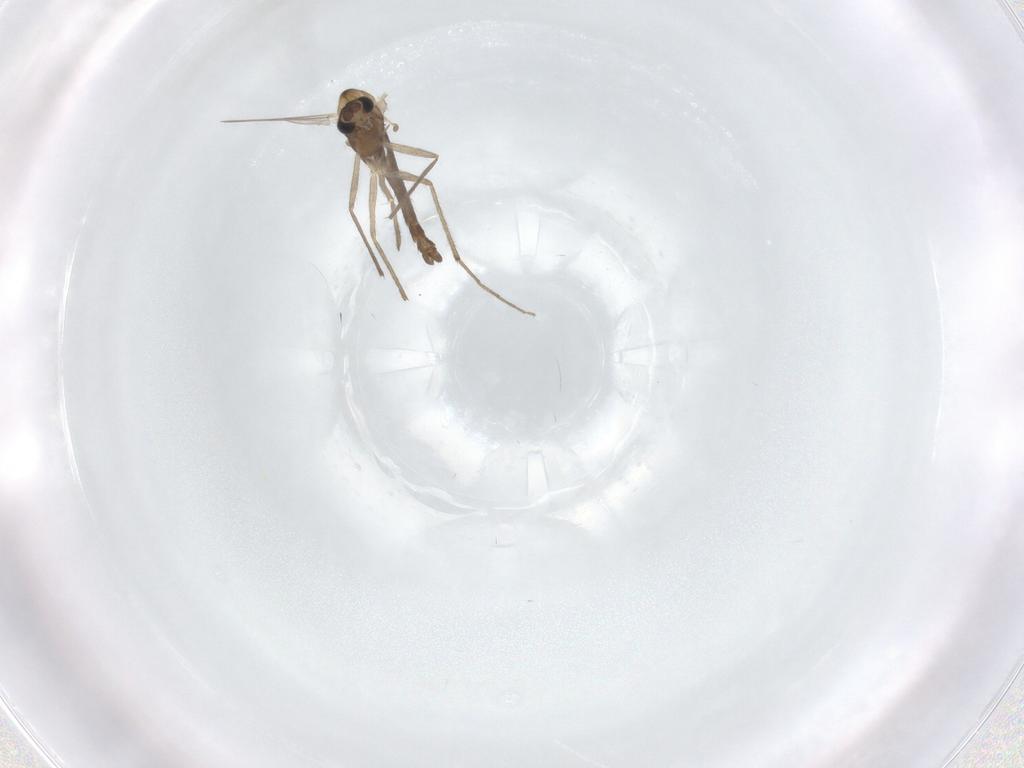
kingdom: Animalia
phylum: Arthropoda
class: Insecta
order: Diptera
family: Chironomidae
